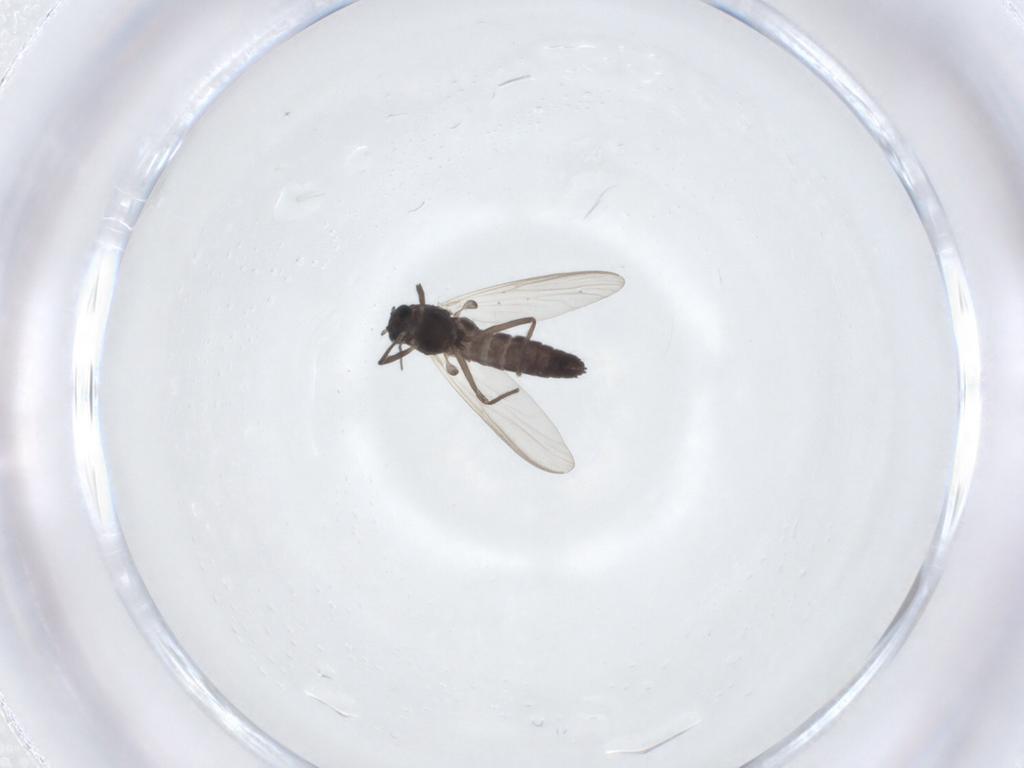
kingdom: Animalia
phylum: Arthropoda
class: Insecta
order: Diptera
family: Chironomidae
